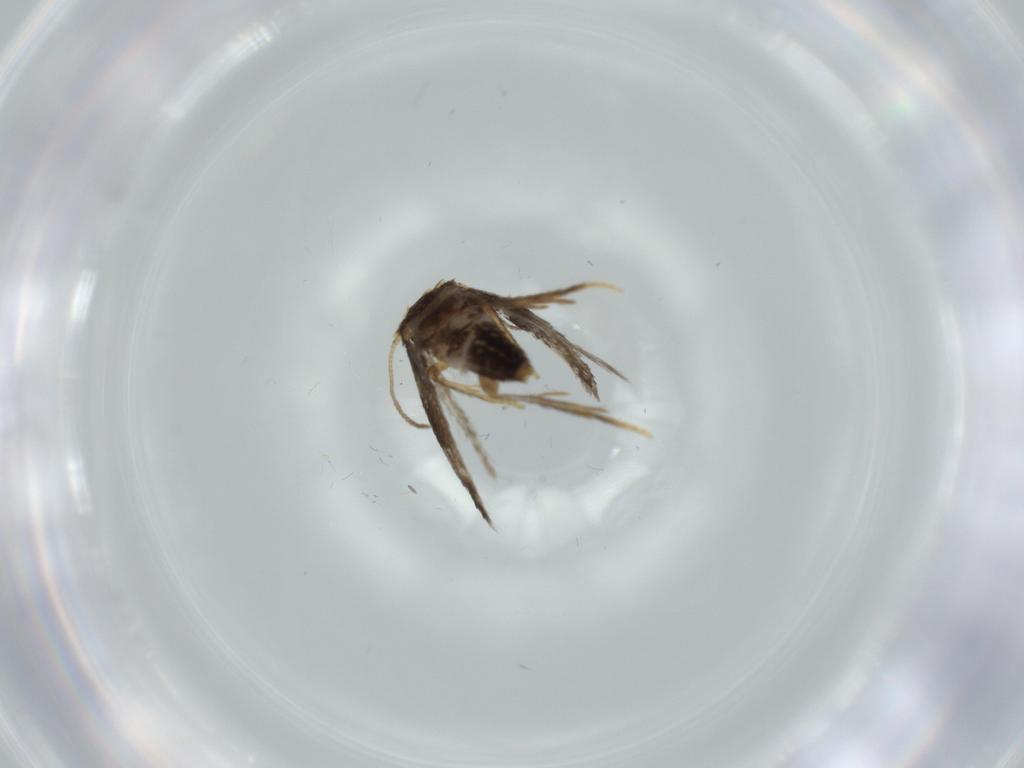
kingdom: Animalia
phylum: Arthropoda
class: Insecta
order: Lepidoptera
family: Nepticulidae
